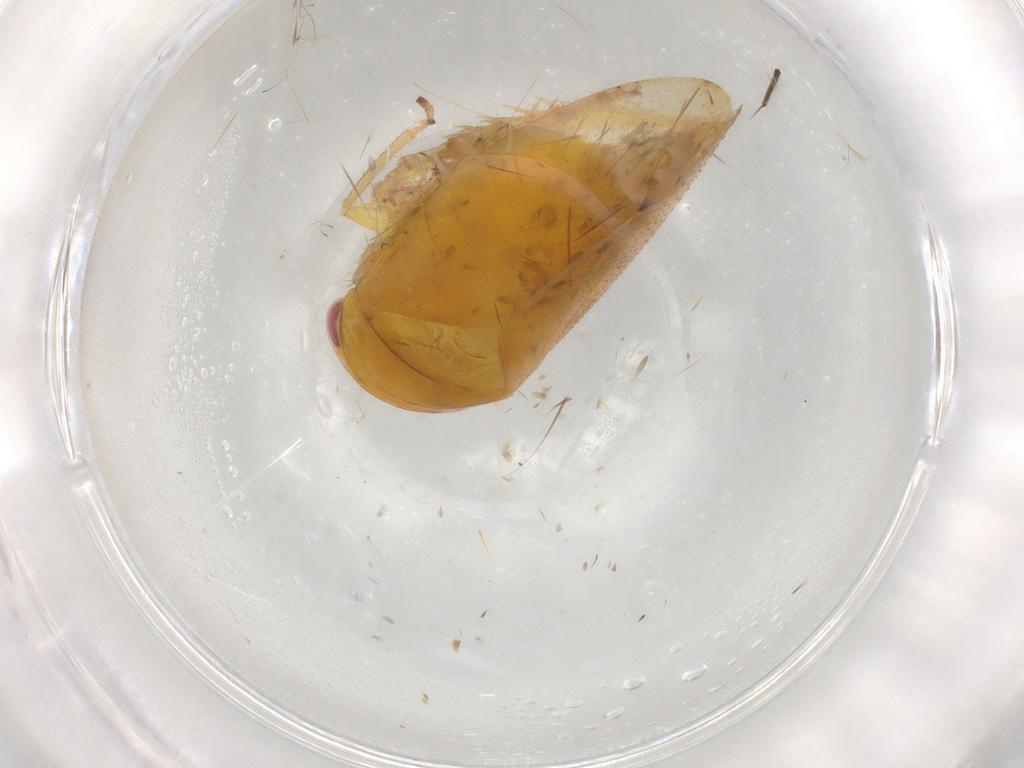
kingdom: Animalia
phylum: Arthropoda
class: Insecta
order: Hemiptera
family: Cicadellidae
